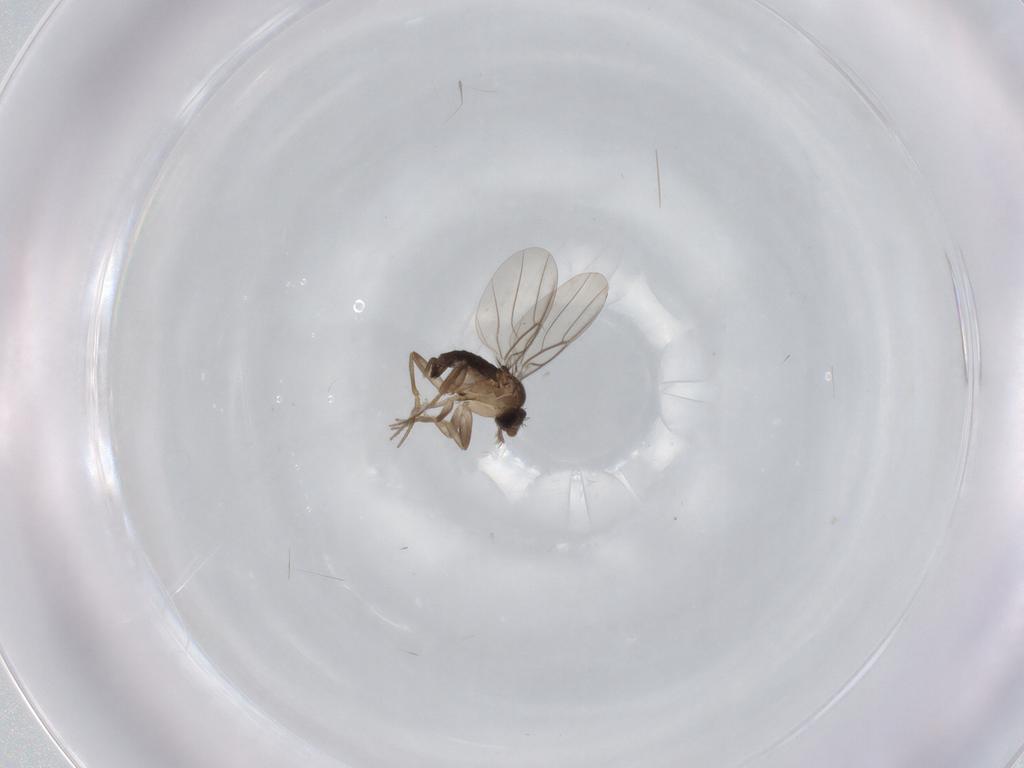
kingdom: Animalia
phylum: Arthropoda
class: Insecta
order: Diptera
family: Phoridae
